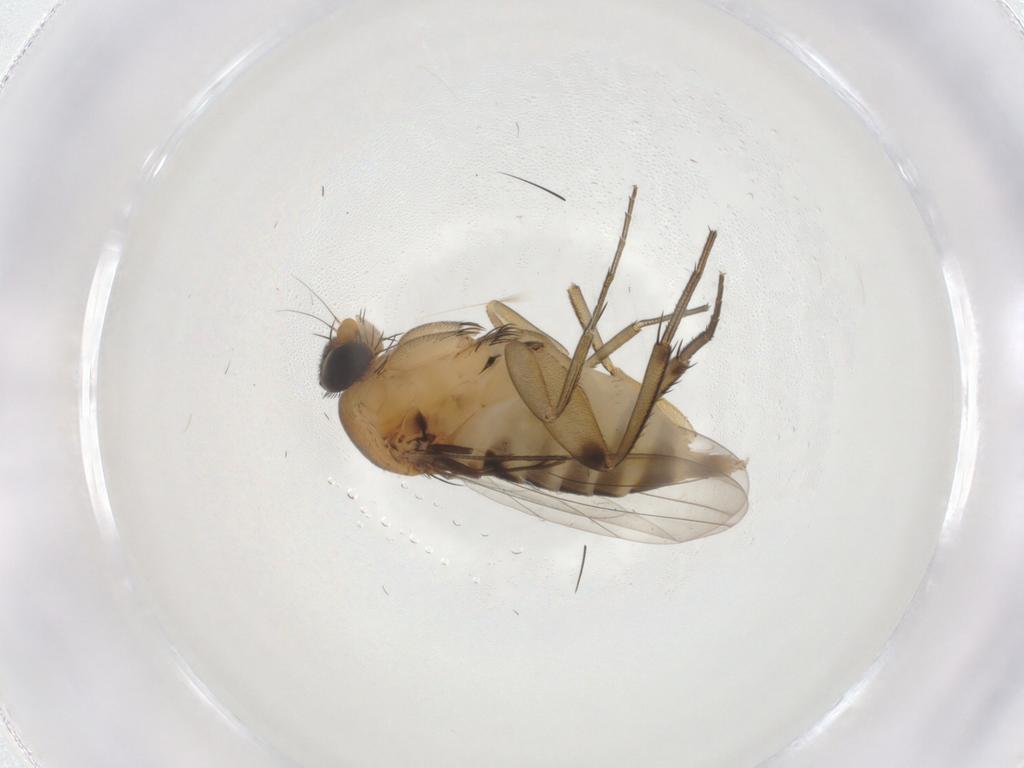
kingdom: Animalia
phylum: Arthropoda
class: Insecta
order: Diptera
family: Phoridae
